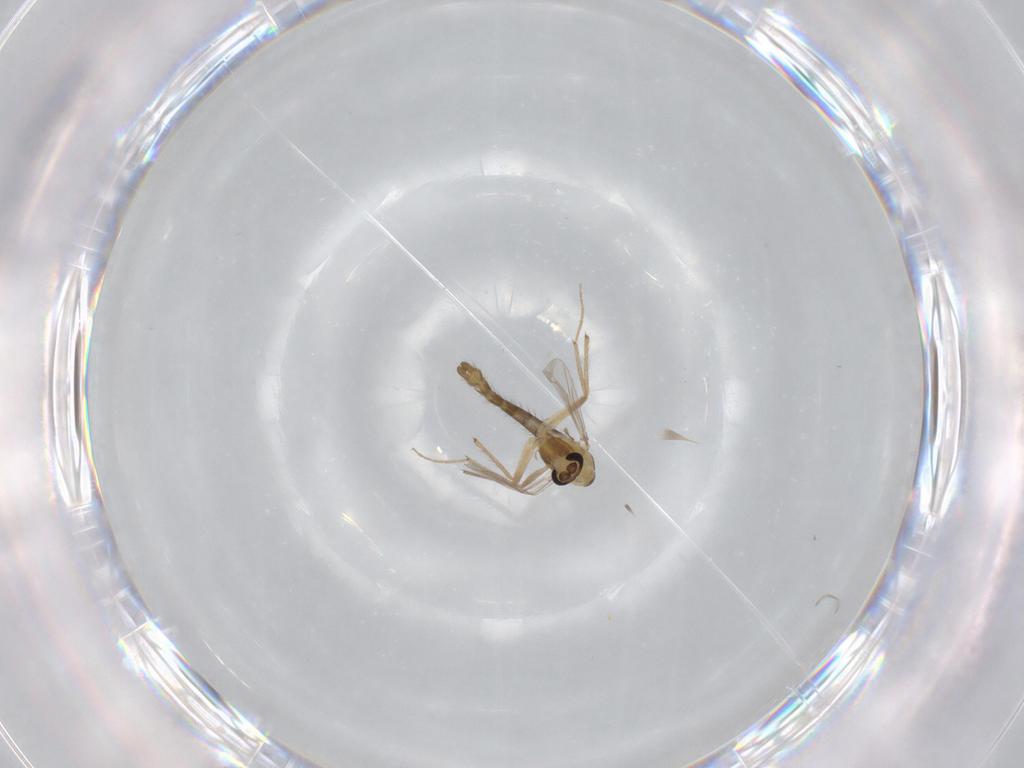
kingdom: Animalia
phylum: Arthropoda
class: Insecta
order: Diptera
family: Chironomidae
